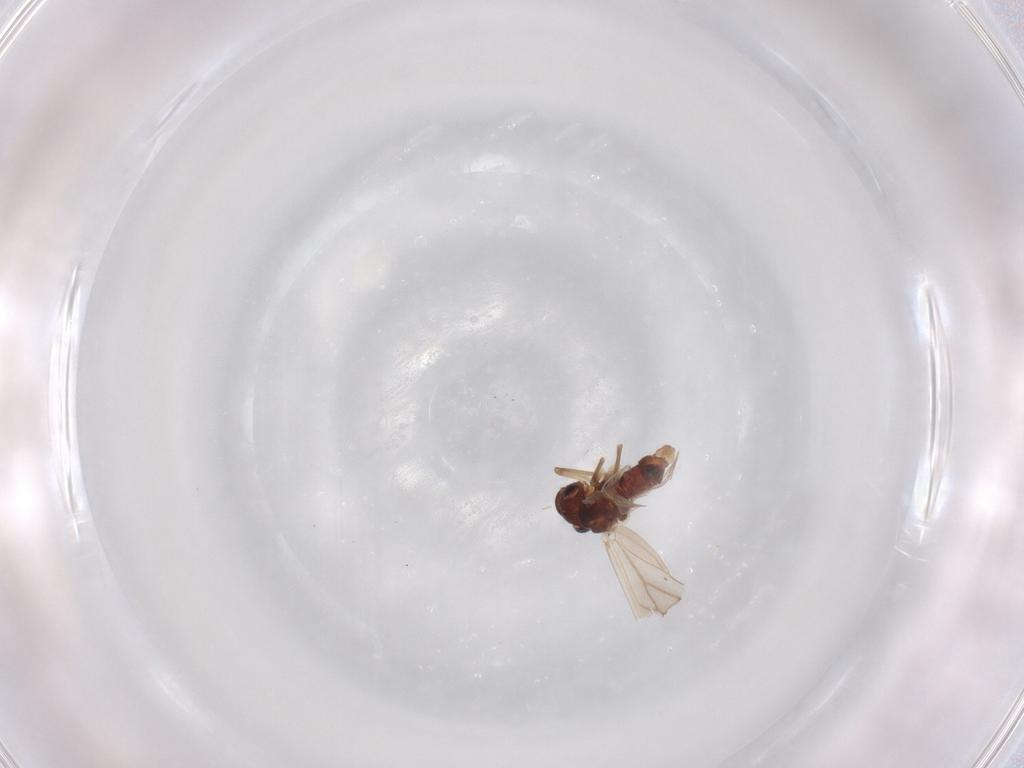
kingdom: Animalia
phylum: Arthropoda
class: Insecta
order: Psocodea
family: Caeciliusidae
